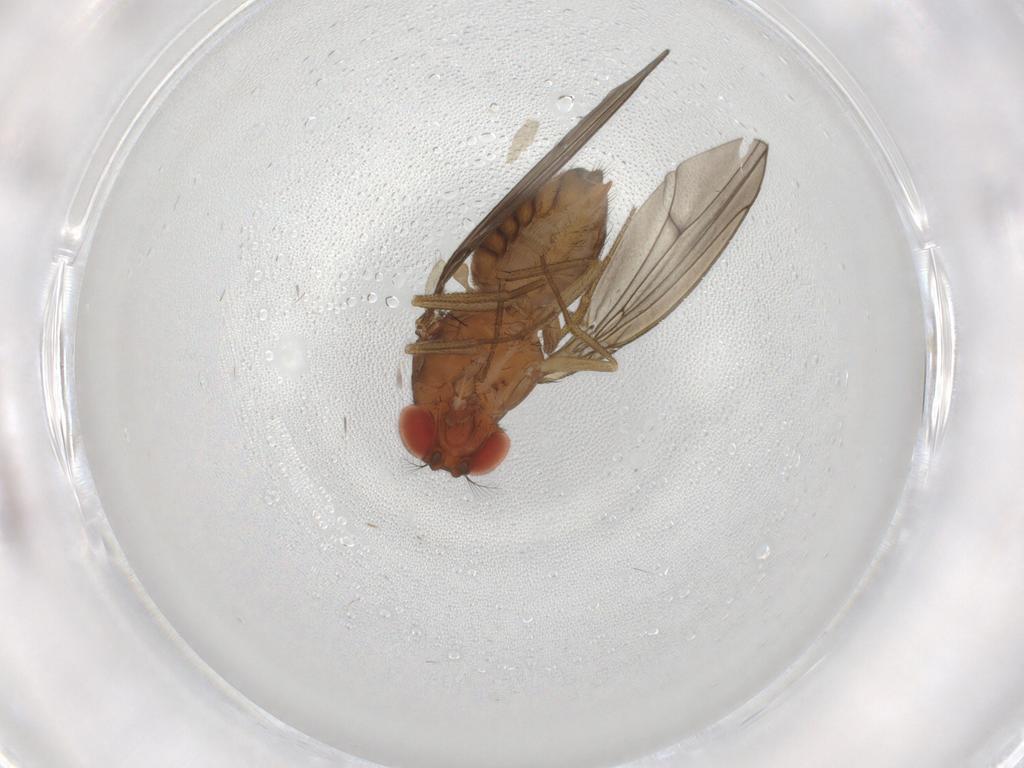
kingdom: Animalia
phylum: Arthropoda
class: Insecta
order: Diptera
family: Drosophilidae
